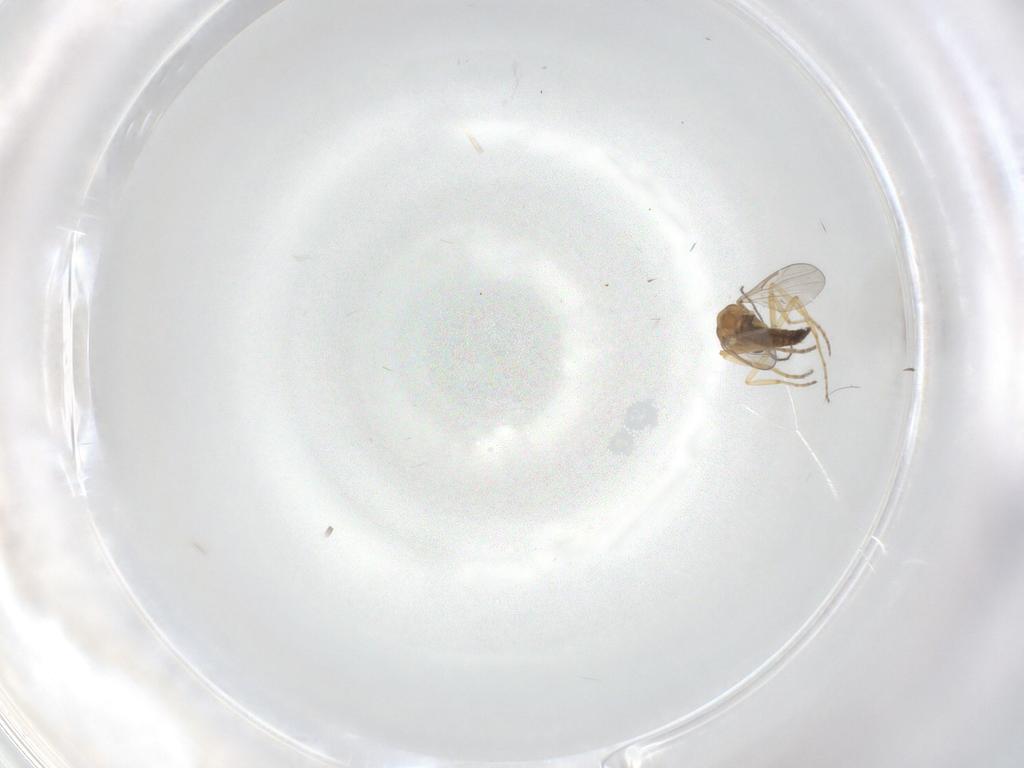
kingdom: Animalia
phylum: Arthropoda
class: Insecta
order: Diptera
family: Ceratopogonidae
